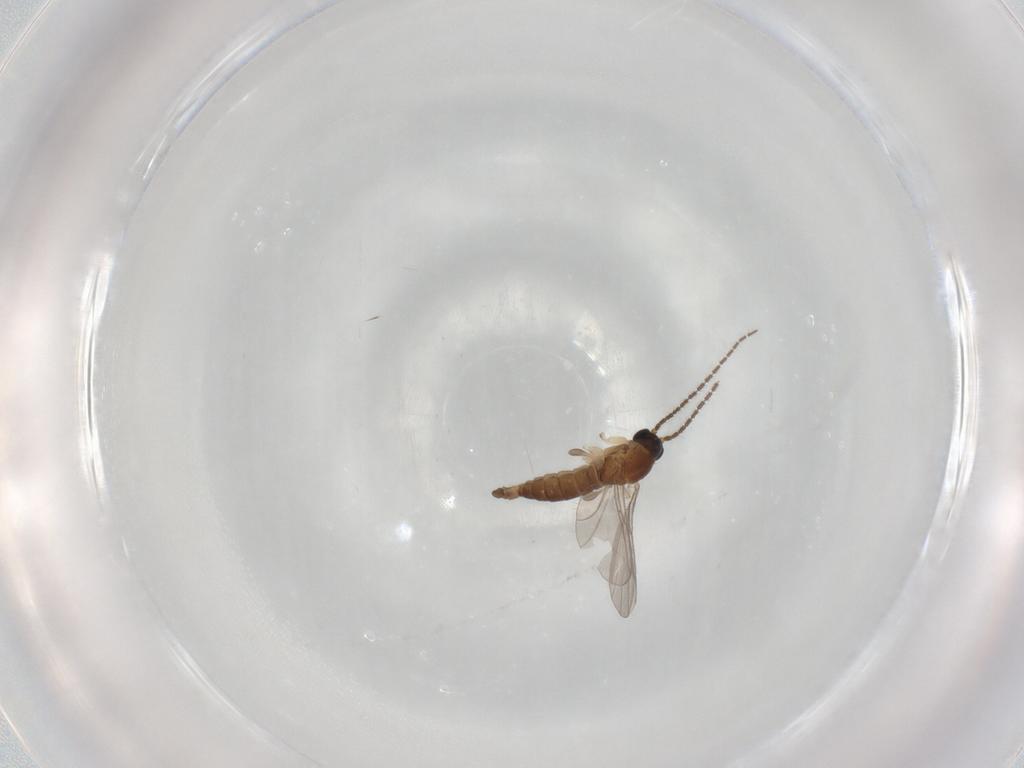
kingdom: Animalia
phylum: Arthropoda
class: Insecta
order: Diptera
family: Sciaridae
